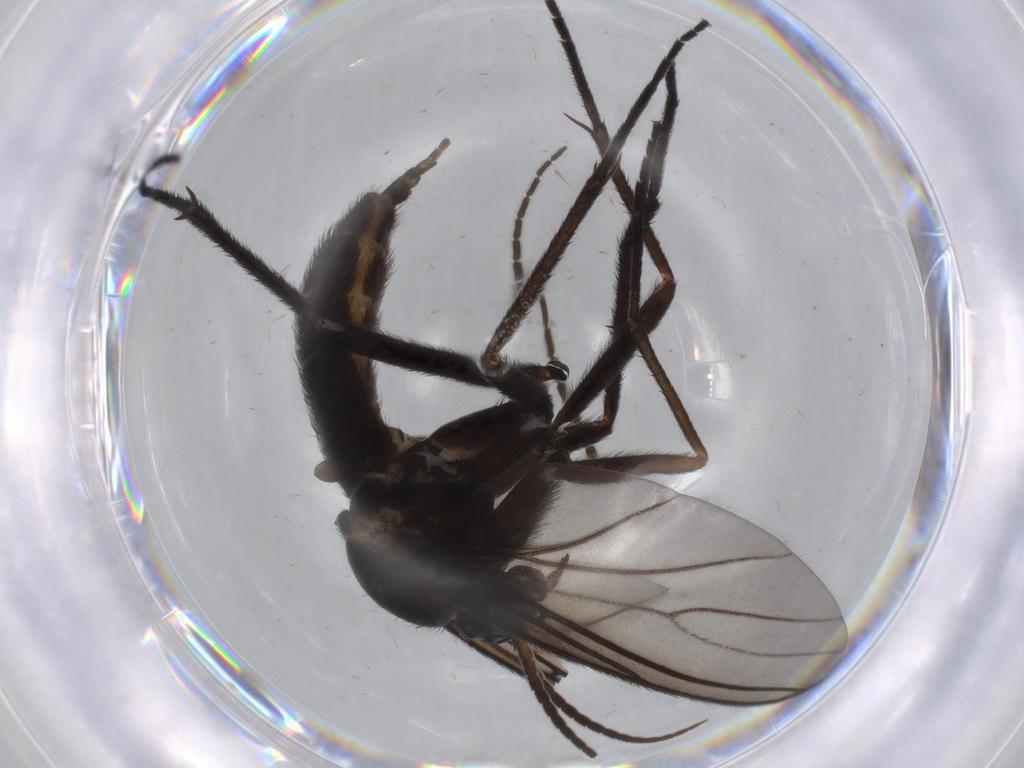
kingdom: Animalia
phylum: Arthropoda
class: Insecta
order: Diptera
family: Sciaridae
